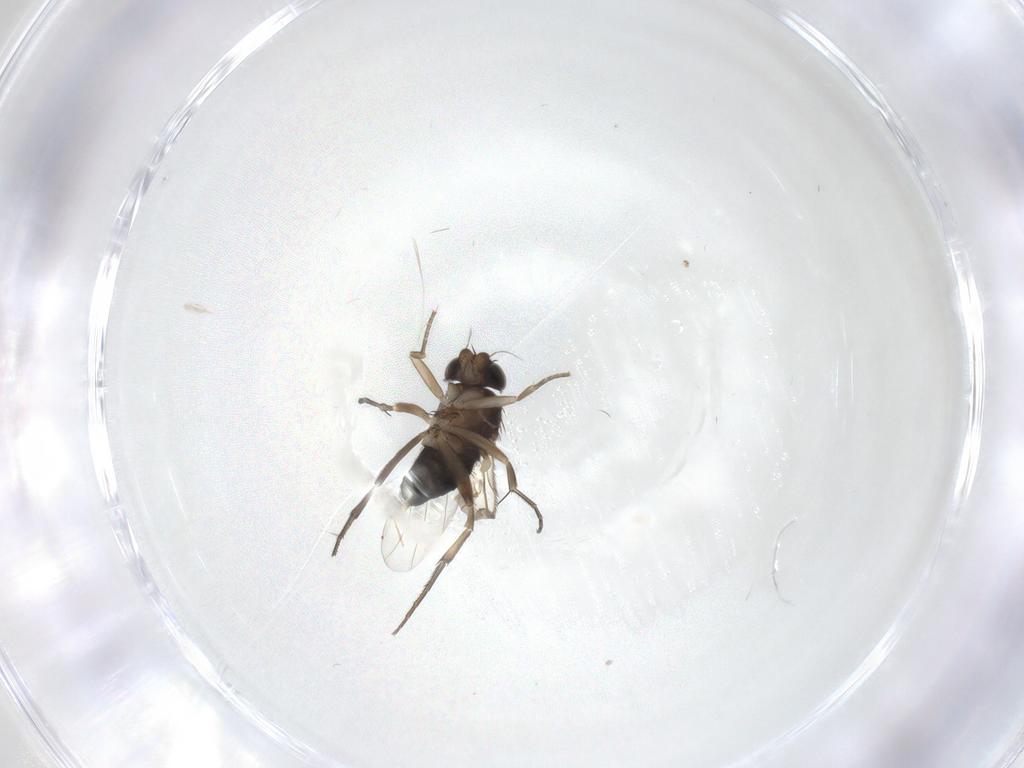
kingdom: Animalia
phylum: Arthropoda
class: Insecta
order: Diptera
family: Phoridae
